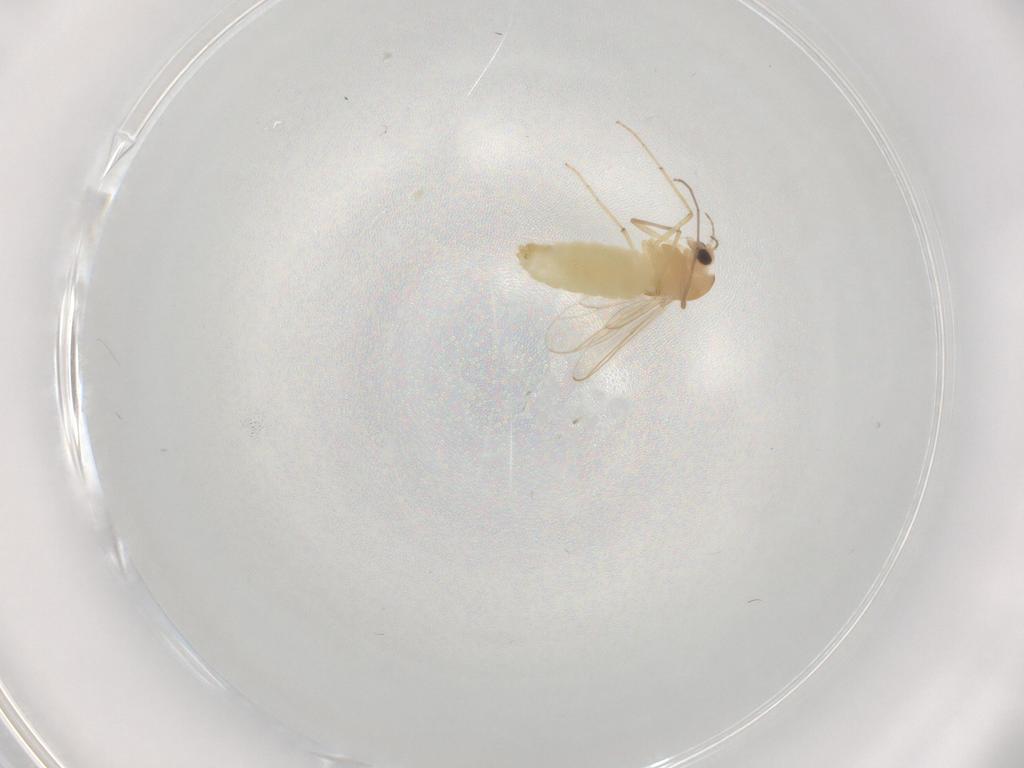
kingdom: Animalia
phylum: Arthropoda
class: Insecta
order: Diptera
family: Chironomidae
